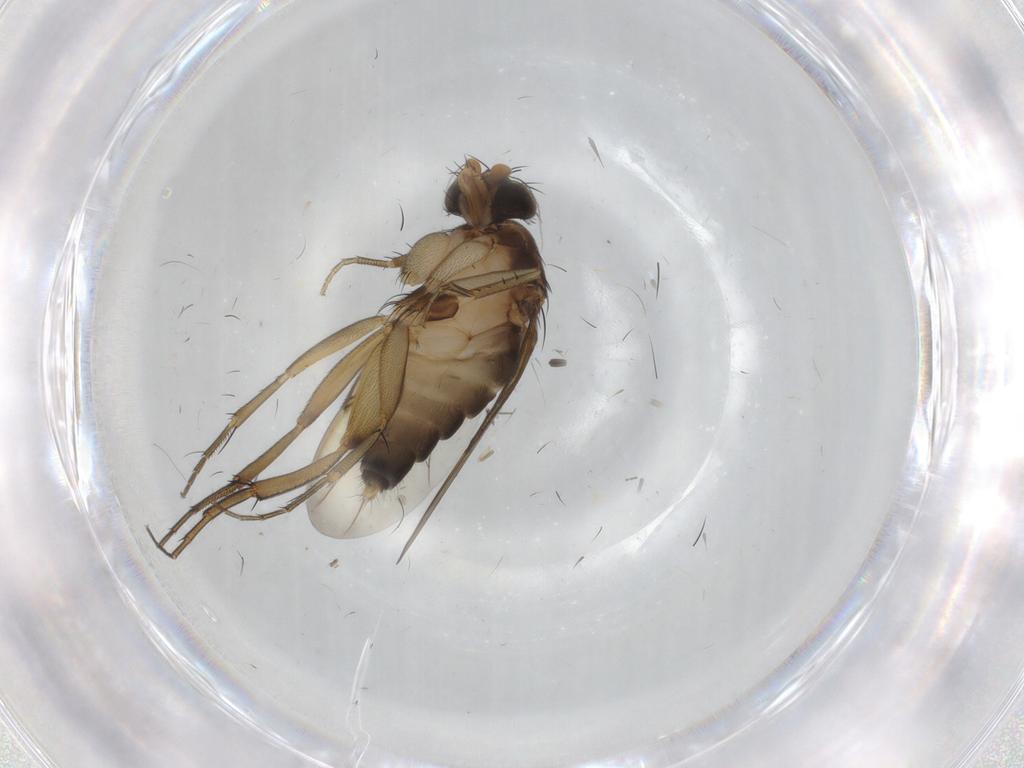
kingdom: Animalia
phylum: Arthropoda
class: Insecta
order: Diptera
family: Phoridae
